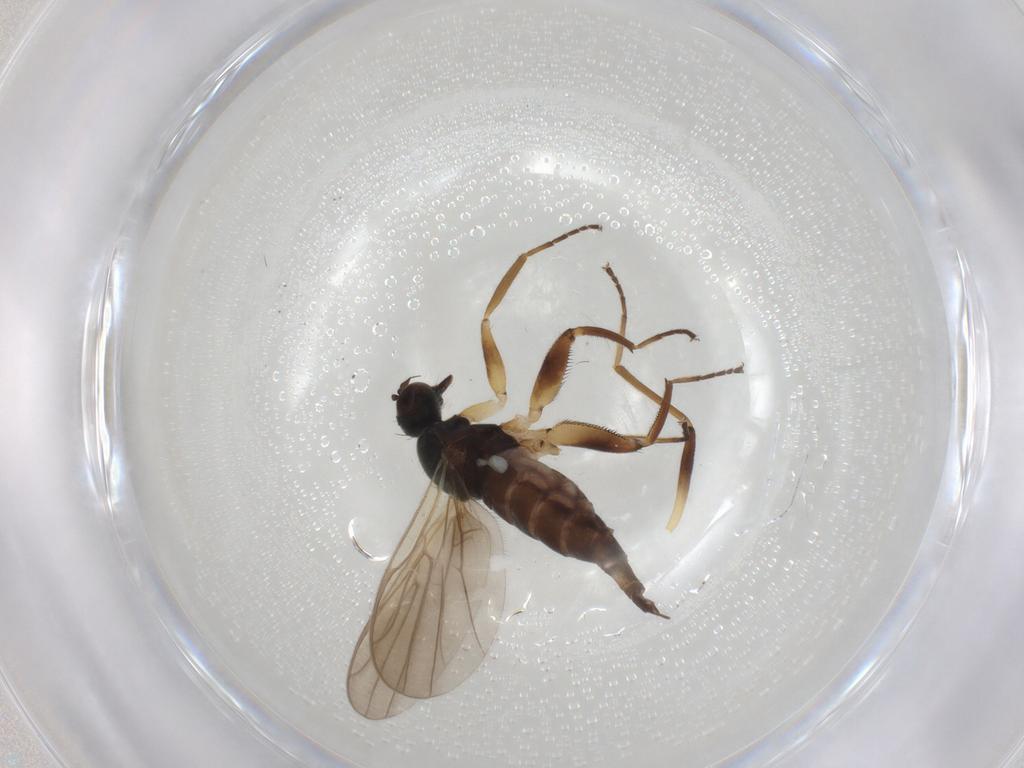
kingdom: Animalia
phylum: Arthropoda
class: Insecta
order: Diptera
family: Hybotidae
